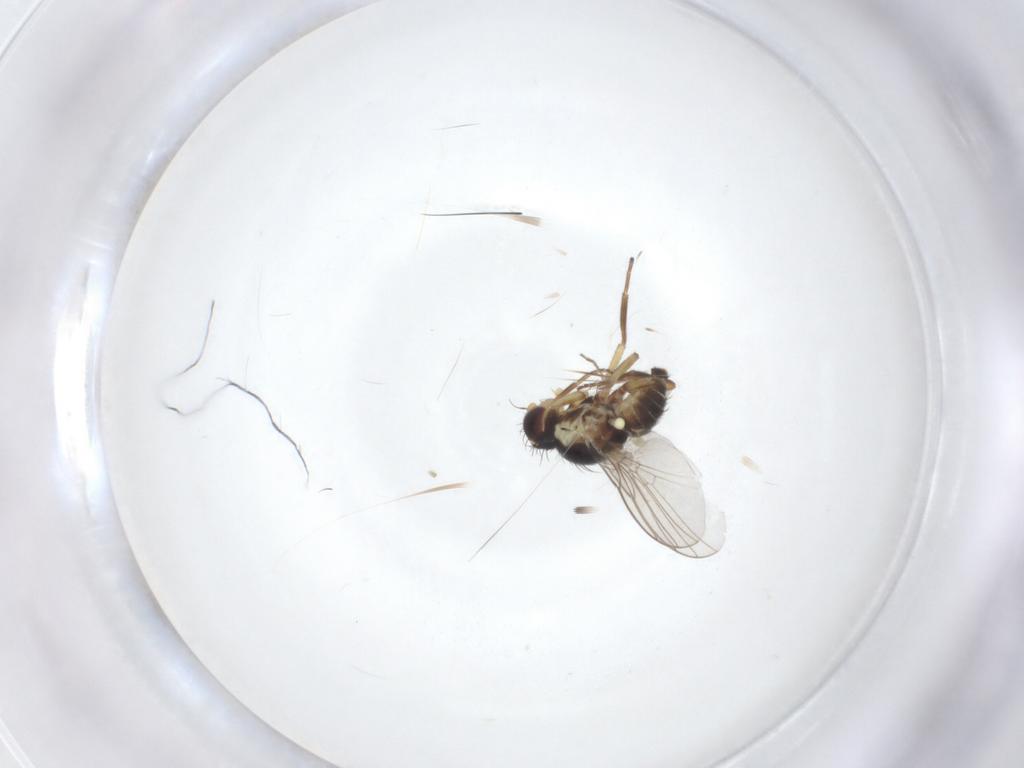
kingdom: Animalia
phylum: Arthropoda
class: Insecta
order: Diptera
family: Agromyzidae
